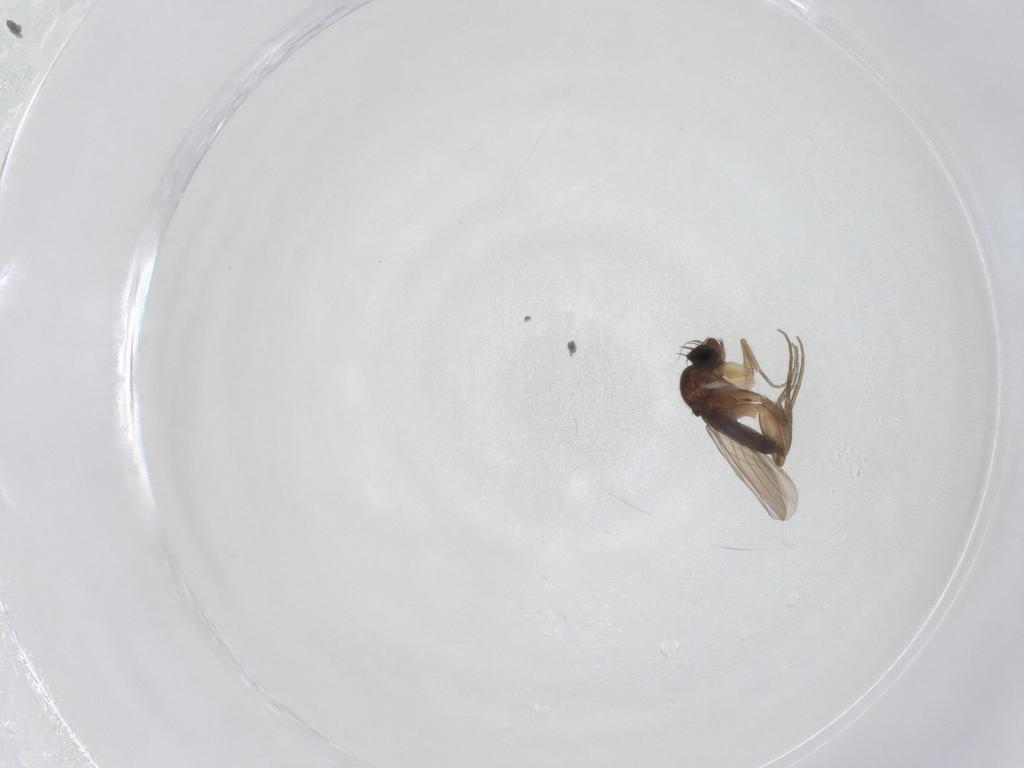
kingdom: Animalia
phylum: Arthropoda
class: Insecta
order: Diptera
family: Phoridae
